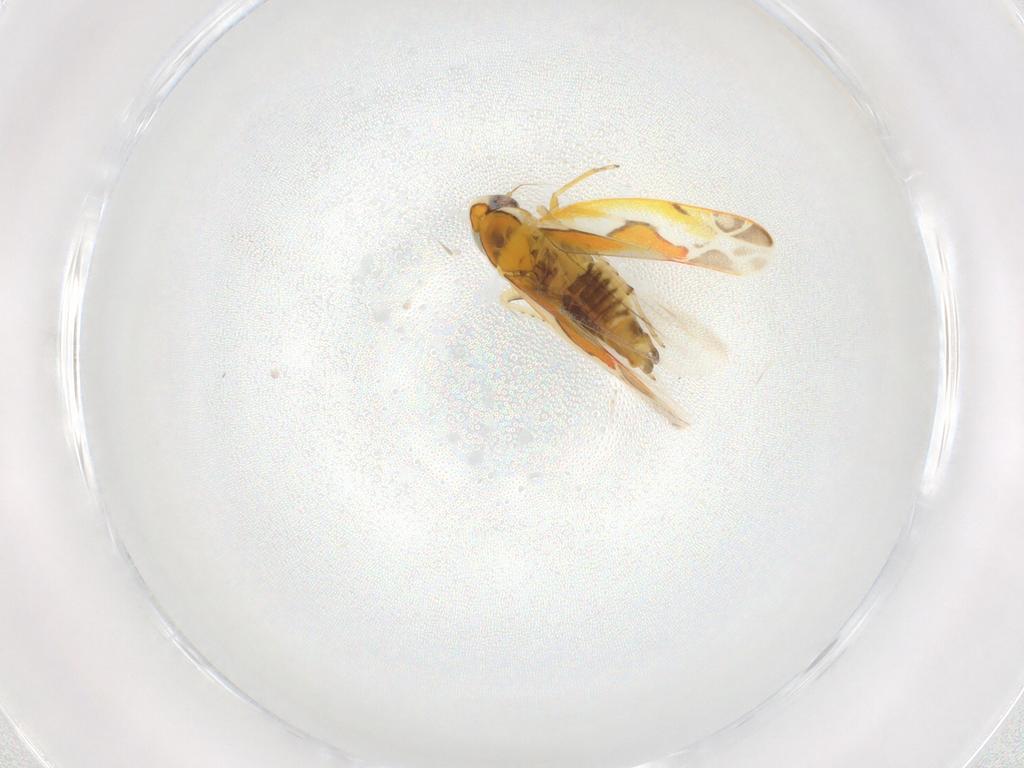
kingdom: Animalia
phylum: Arthropoda
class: Insecta
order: Hemiptera
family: Cicadellidae
